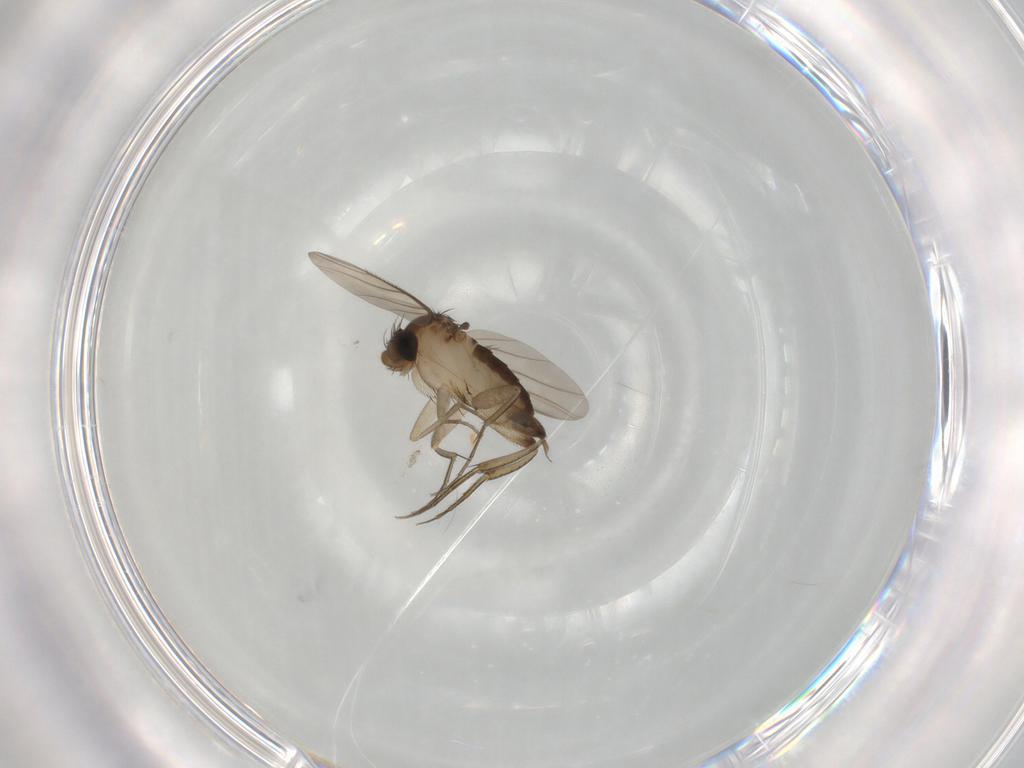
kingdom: Animalia
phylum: Arthropoda
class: Insecta
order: Diptera
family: Phoridae
